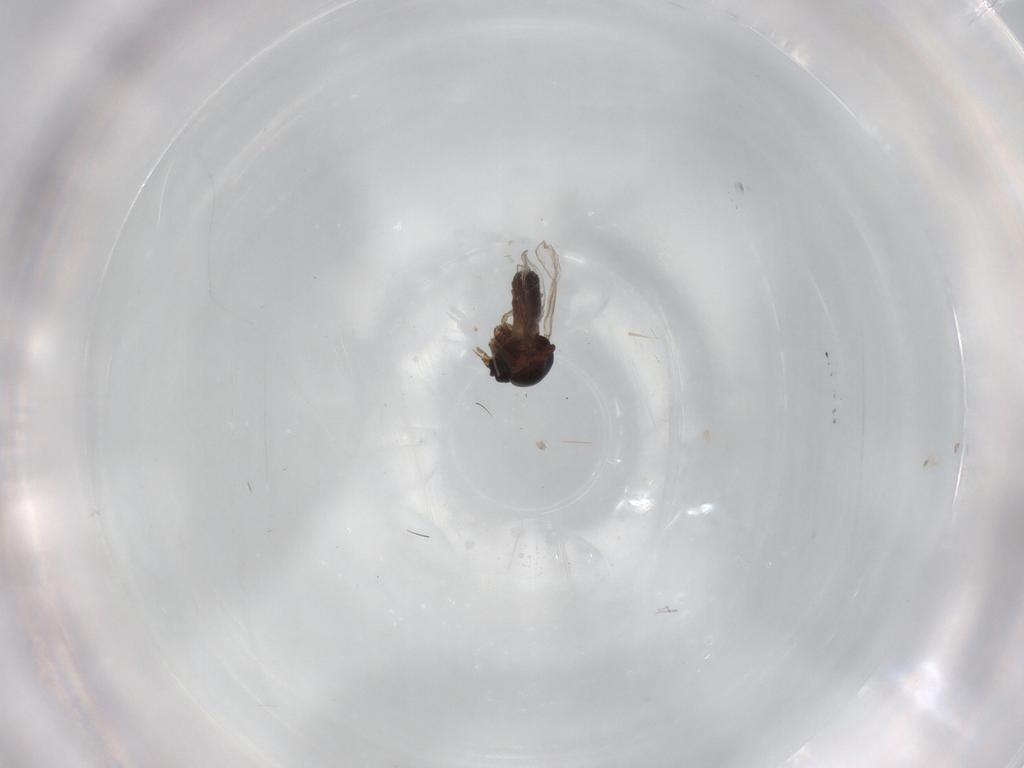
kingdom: Animalia
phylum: Arthropoda
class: Insecta
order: Diptera
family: Ceratopogonidae
